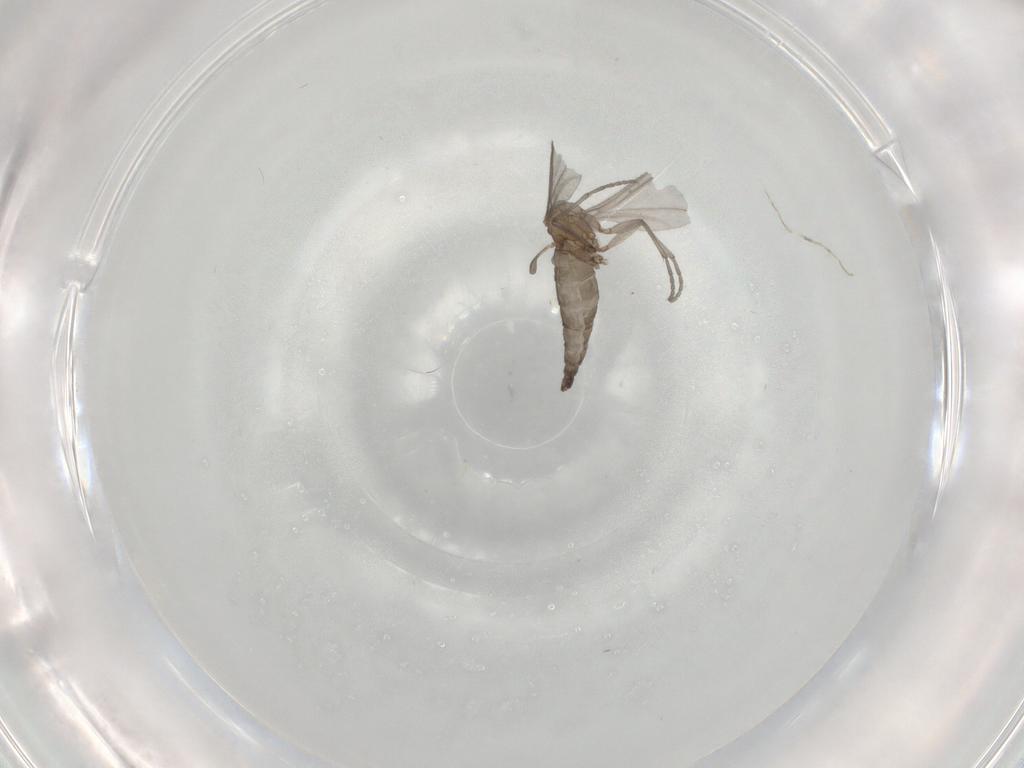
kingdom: Animalia
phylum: Arthropoda
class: Insecta
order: Diptera
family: Sciaridae
